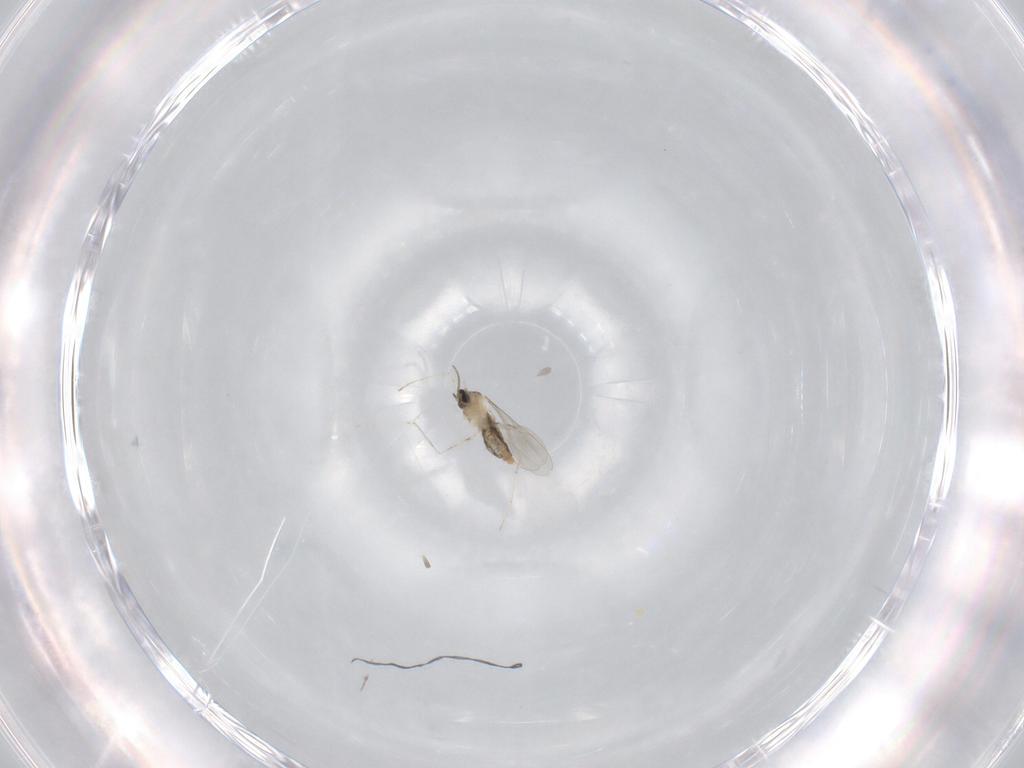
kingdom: Animalia
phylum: Arthropoda
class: Insecta
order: Diptera
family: Cecidomyiidae
